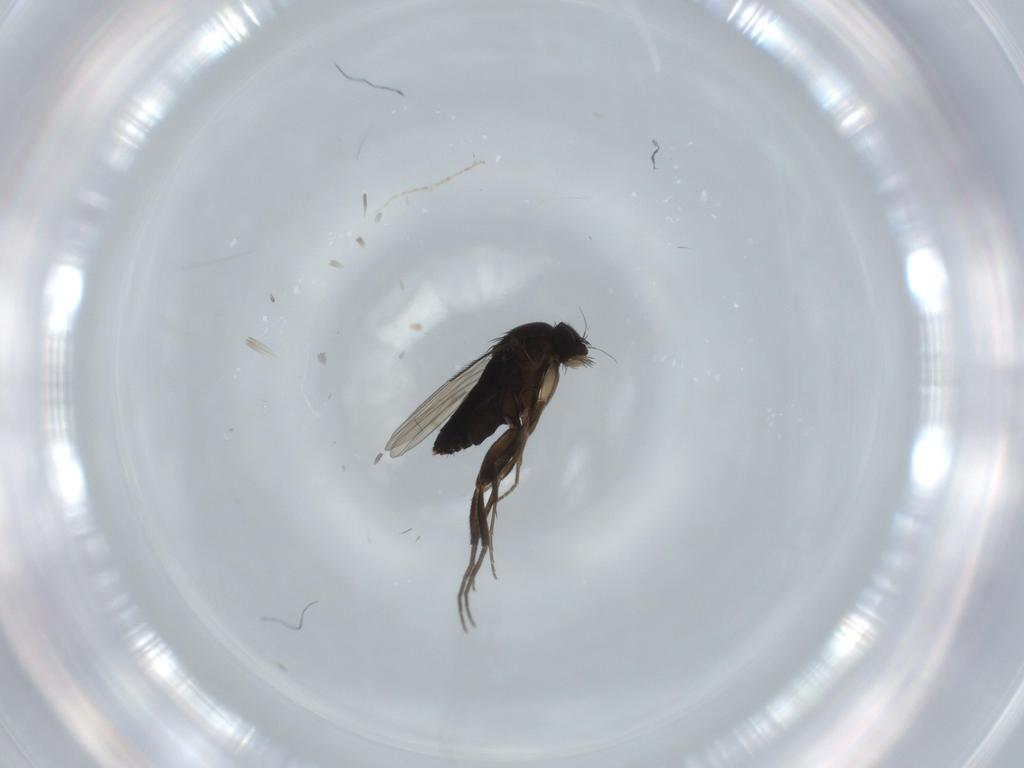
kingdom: Animalia
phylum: Arthropoda
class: Insecta
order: Diptera
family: Phoridae
